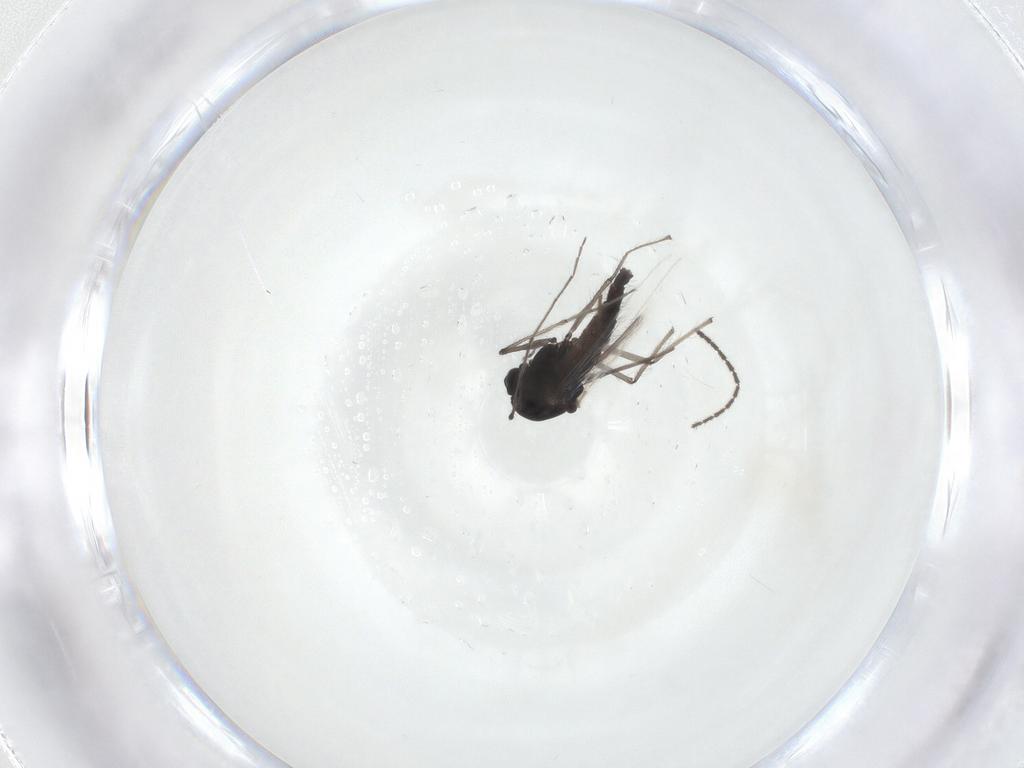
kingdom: Animalia
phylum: Arthropoda
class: Insecta
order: Diptera
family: Sciaridae
